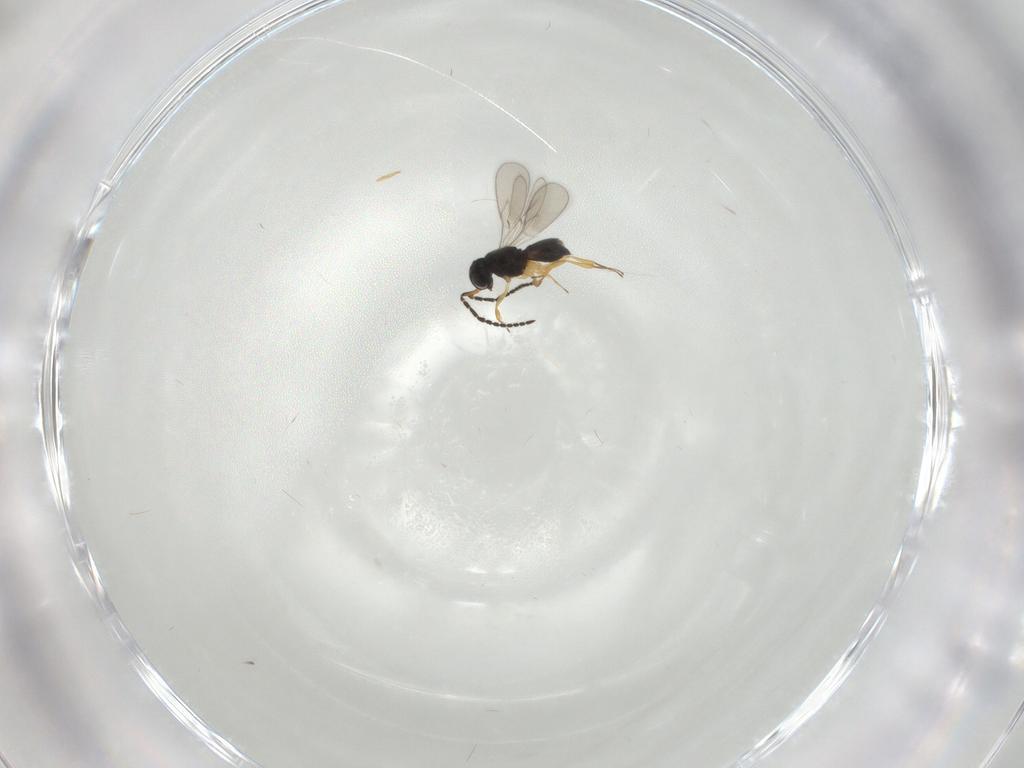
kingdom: Animalia
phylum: Arthropoda
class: Insecta
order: Hymenoptera
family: Scelionidae
